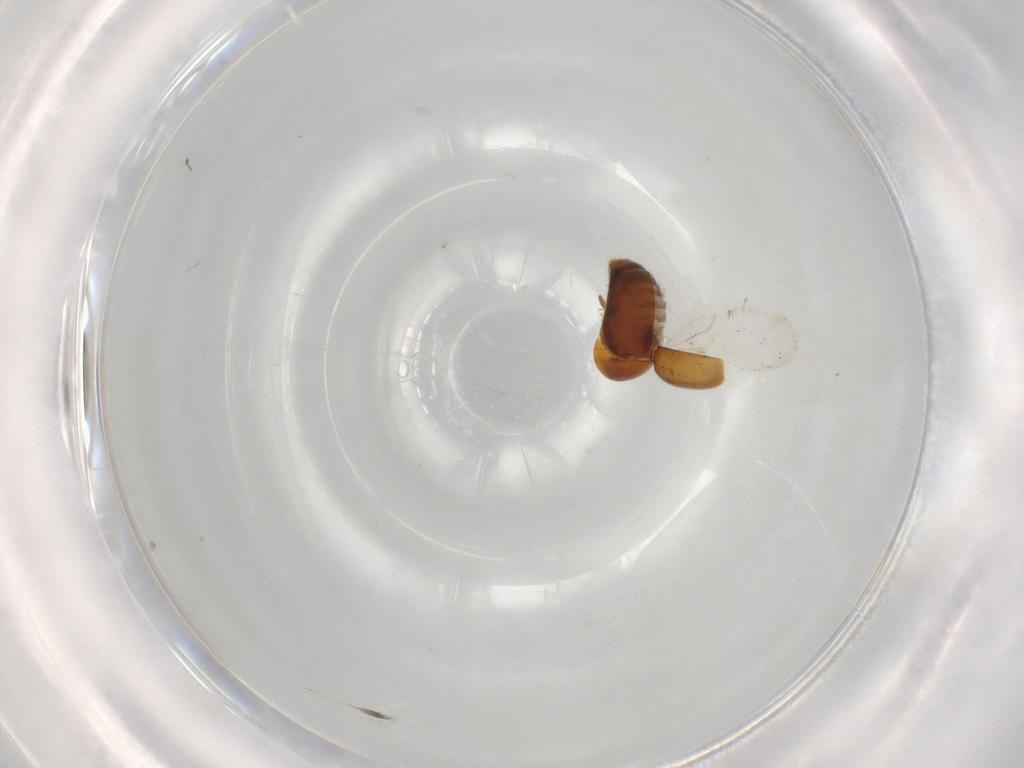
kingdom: Animalia
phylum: Arthropoda
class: Insecta
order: Coleoptera
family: Corylophidae
